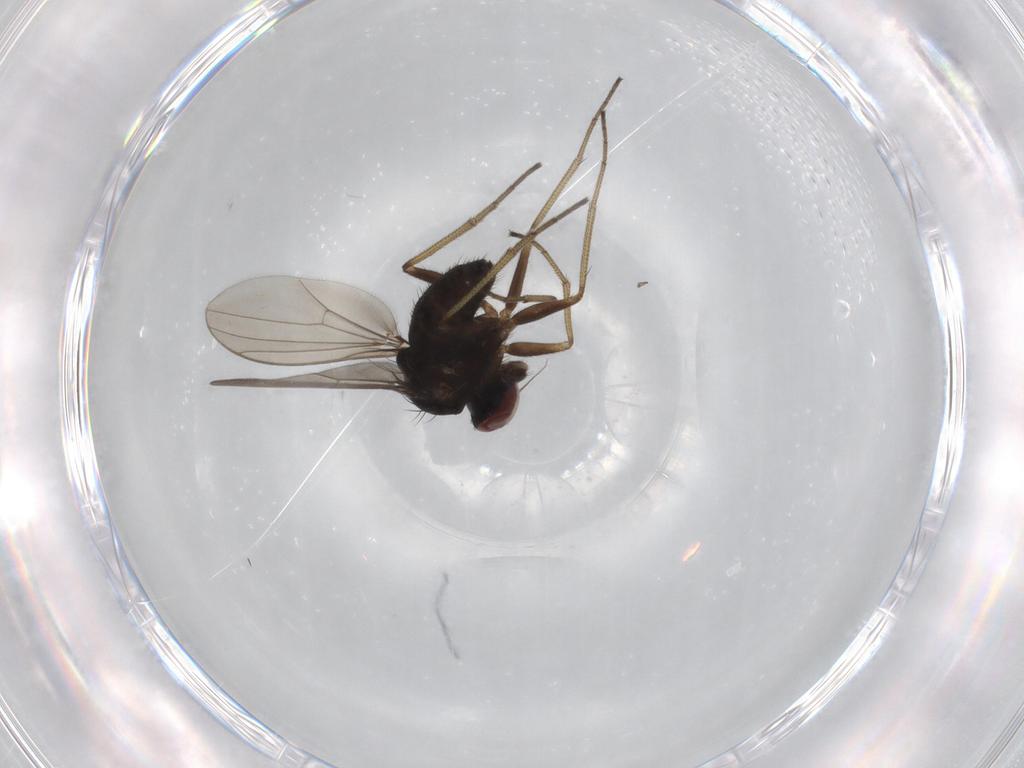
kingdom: Animalia
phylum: Arthropoda
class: Insecta
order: Diptera
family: Dolichopodidae
